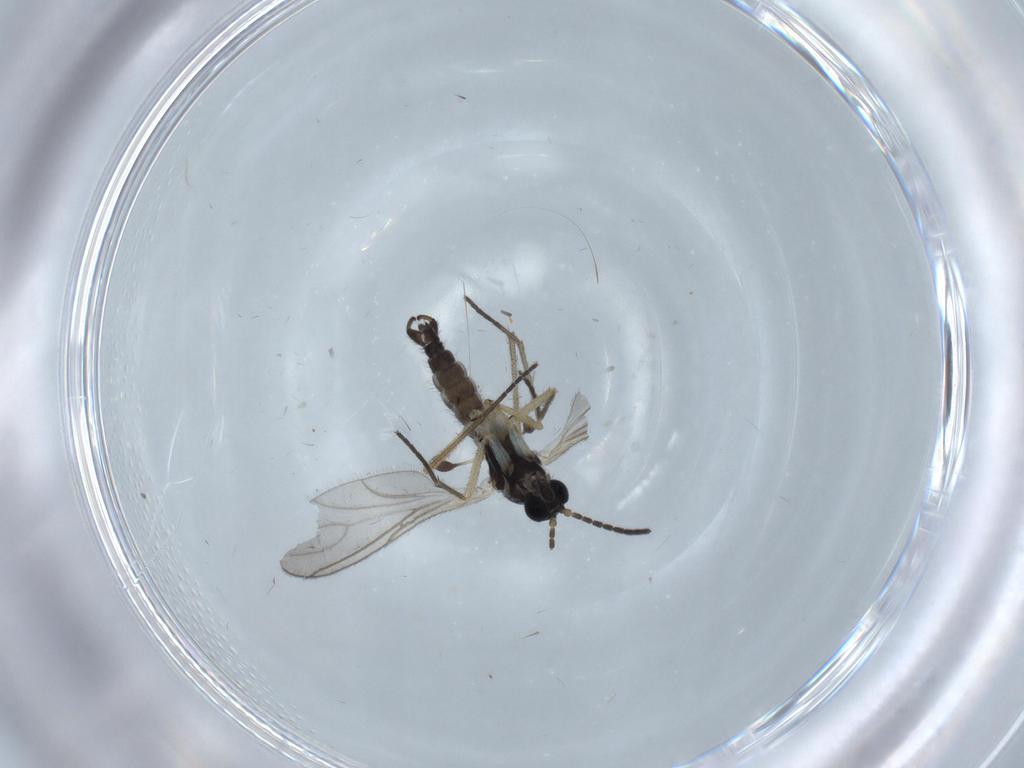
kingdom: Animalia
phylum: Arthropoda
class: Insecta
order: Diptera
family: Sciaridae
